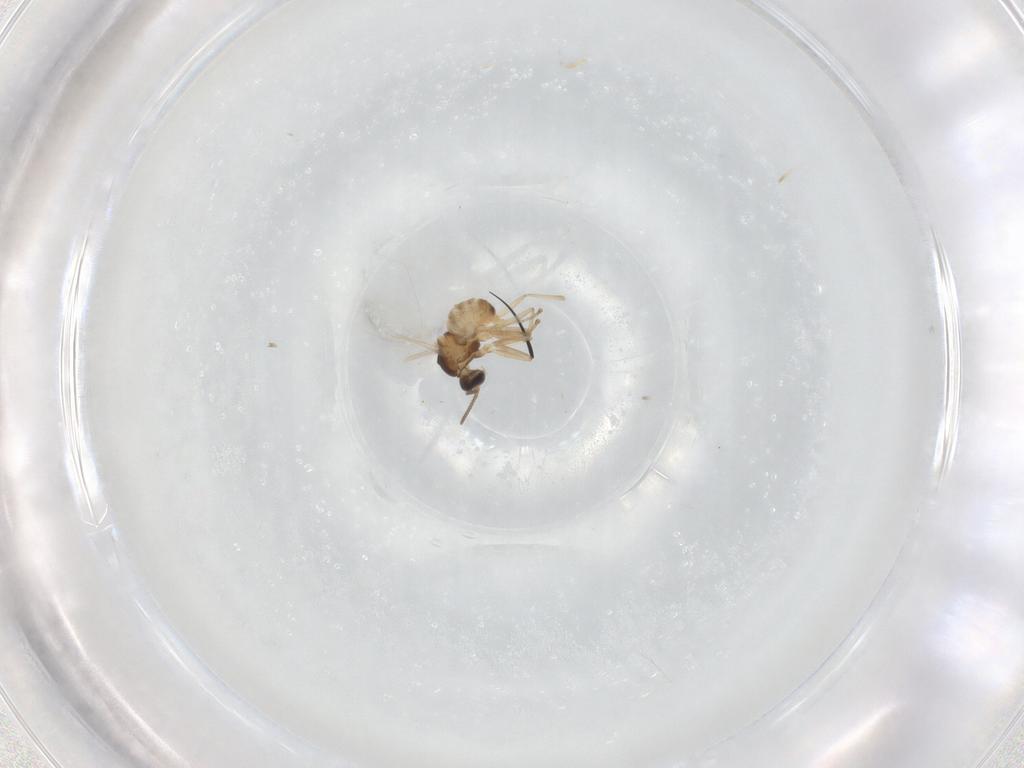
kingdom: Animalia
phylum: Arthropoda
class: Insecta
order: Diptera
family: Cecidomyiidae
